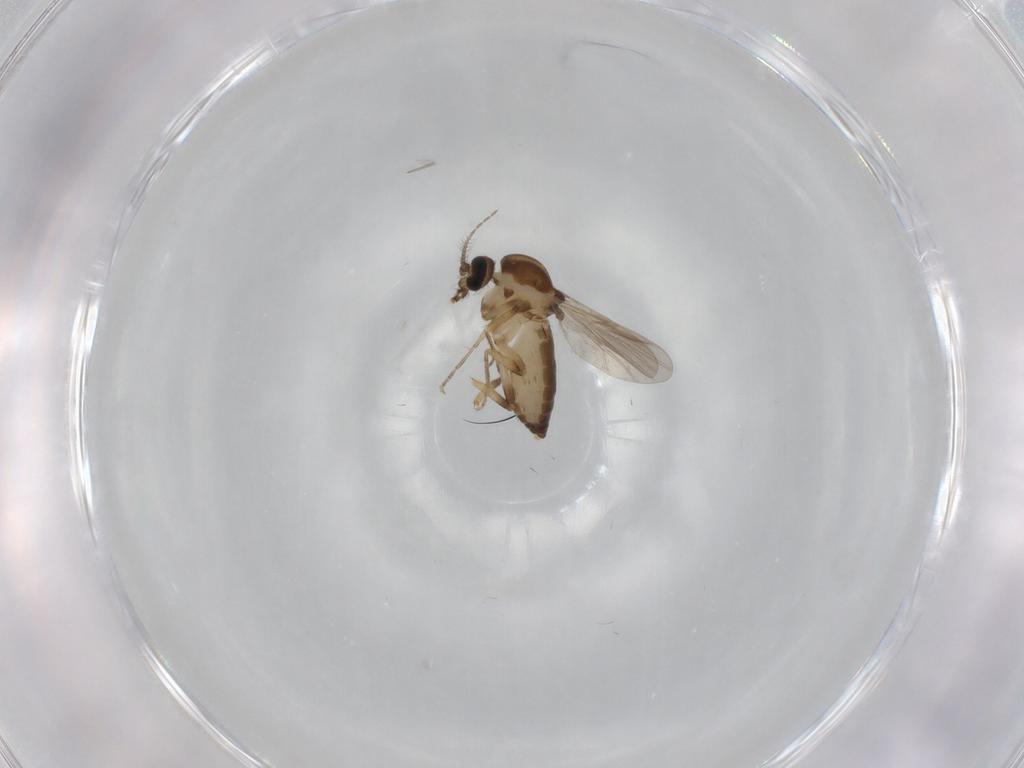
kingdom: Animalia
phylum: Arthropoda
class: Insecta
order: Diptera
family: Ceratopogonidae
